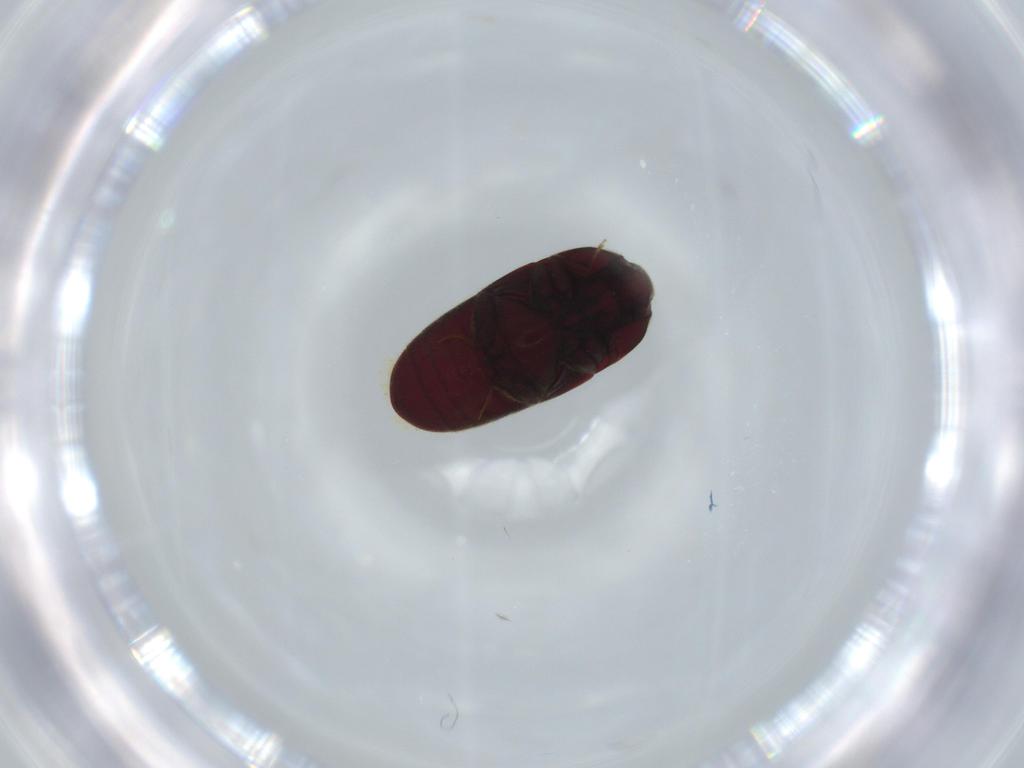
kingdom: Animalia
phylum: Arthropoda
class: Insecta
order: Coleoptera
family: Throscidae
